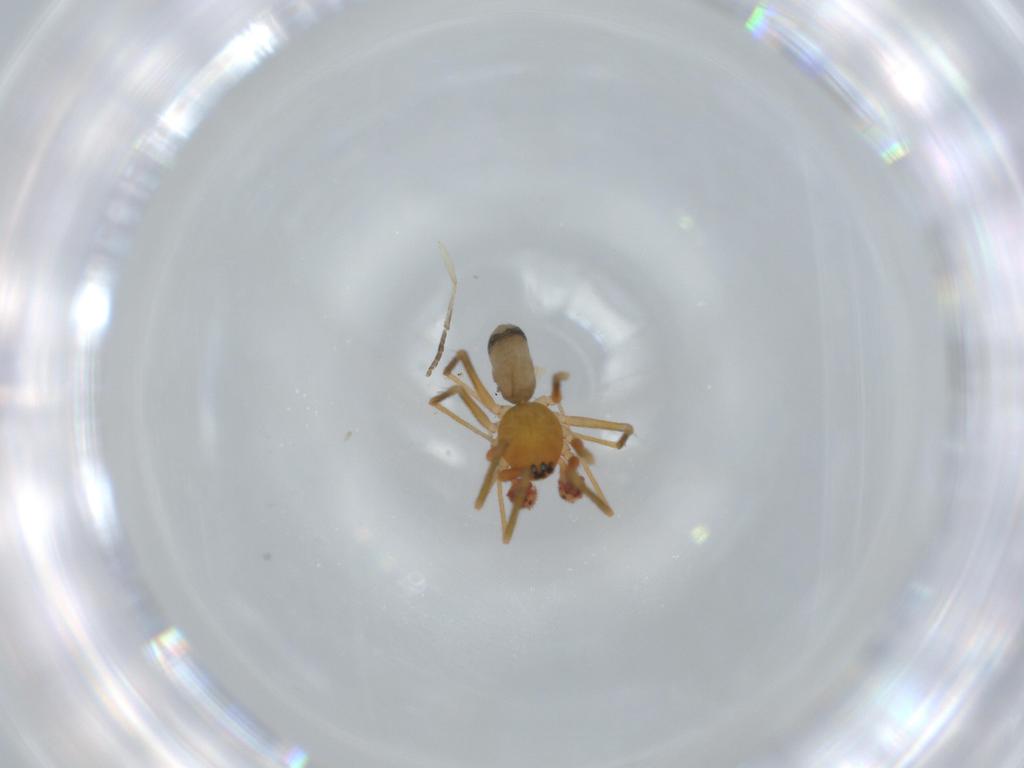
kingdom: Animalia
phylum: Arthropoda
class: Arachnida
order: Araneae
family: Linyphiidae
